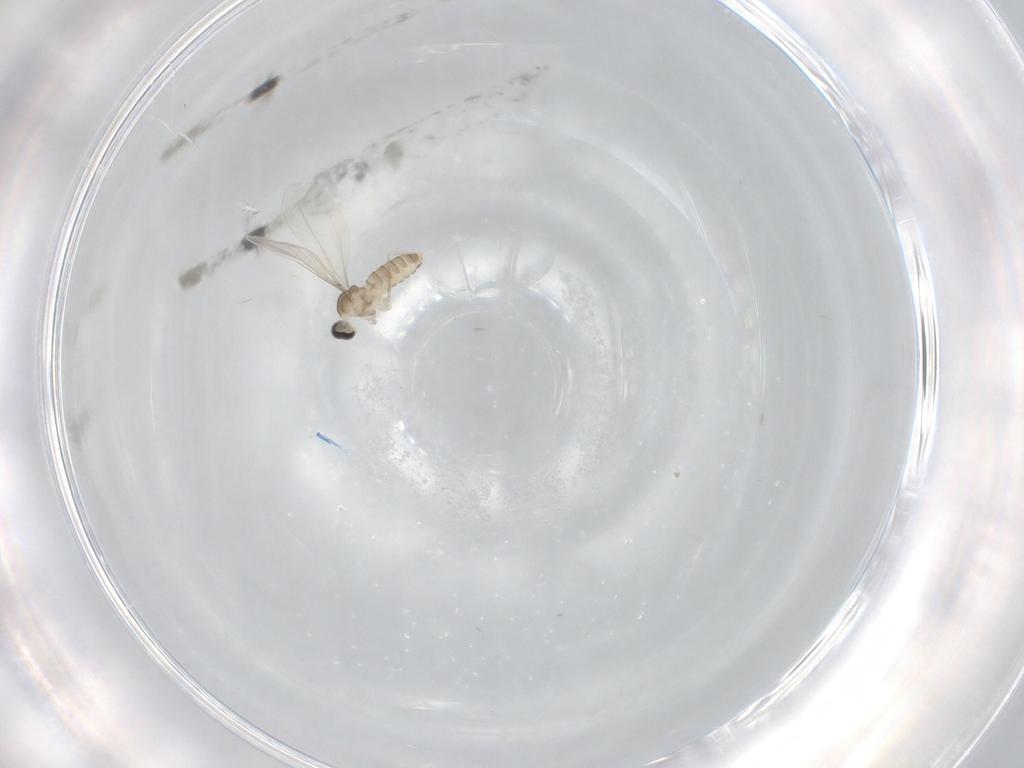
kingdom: Animalia
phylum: Arthropoda
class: Insecta
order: Diptera
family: Cecidomyiidae
